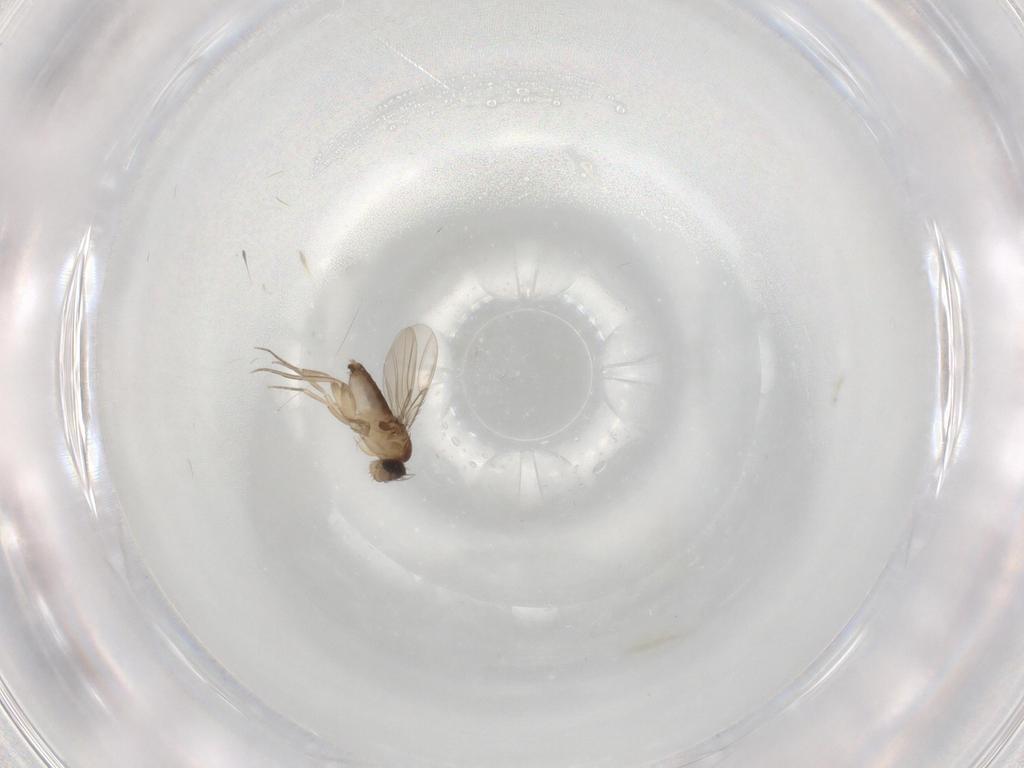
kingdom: Animalia
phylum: Arthropoda
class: Insecta
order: Diptera
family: Phoridae
